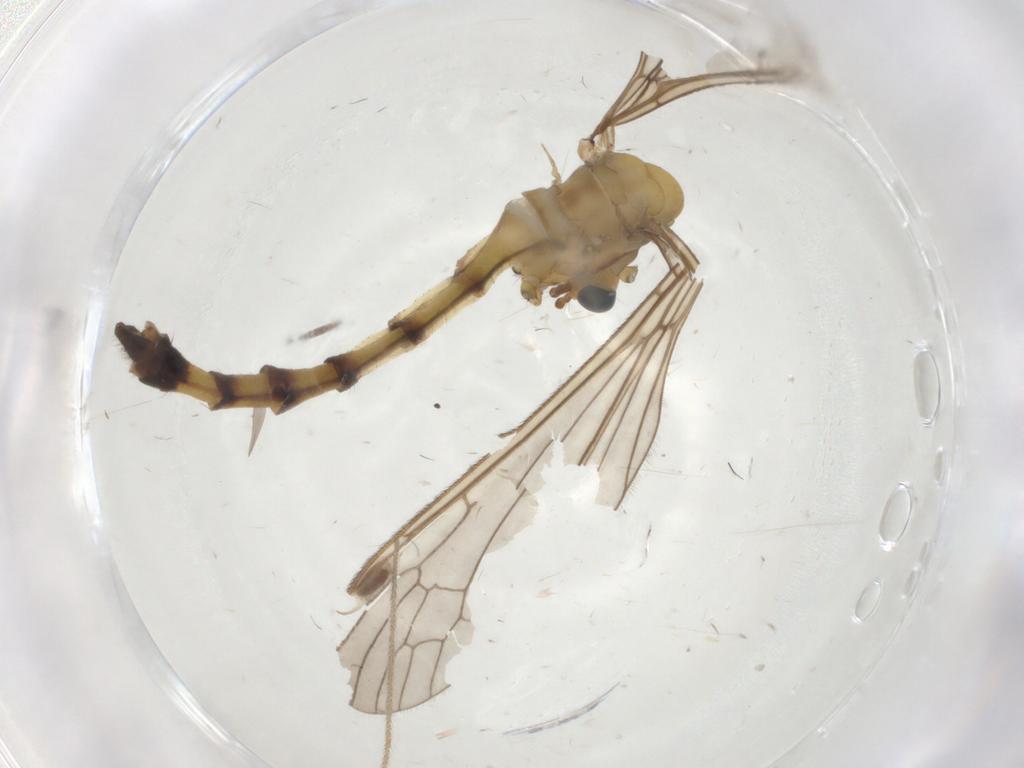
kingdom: Animalia
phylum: Arthropoda
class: Insecta
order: Diptera
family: Limoniidae
